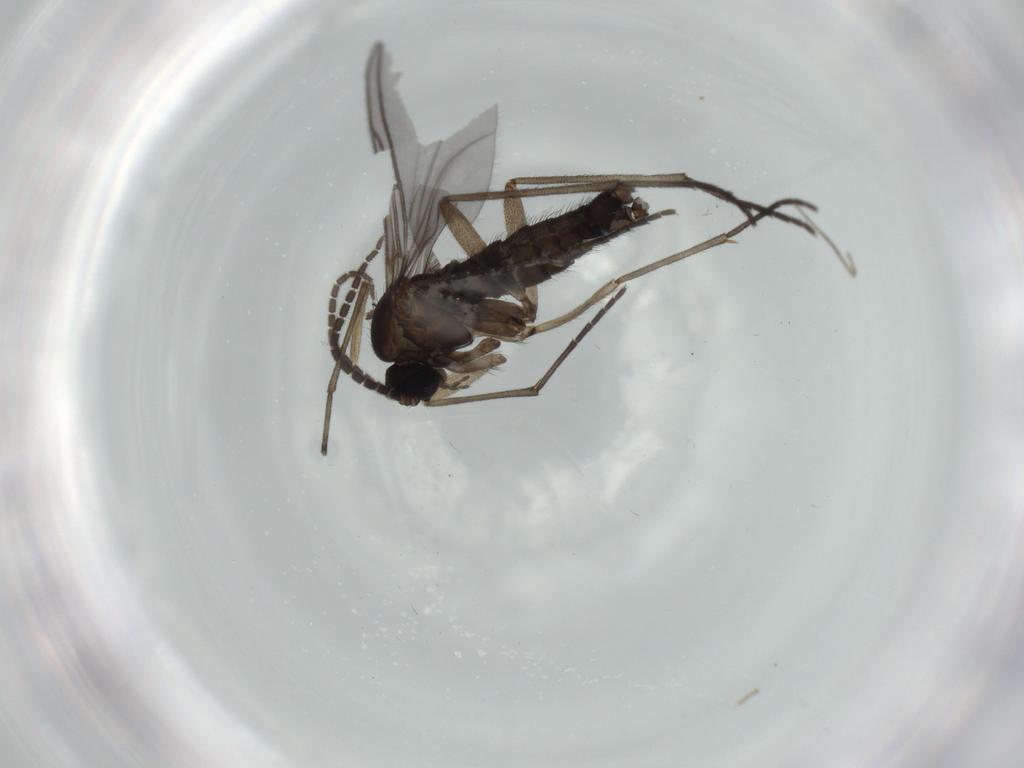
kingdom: Animalia
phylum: Arthropoda
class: Insecta
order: Diptera
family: Sciaridae
